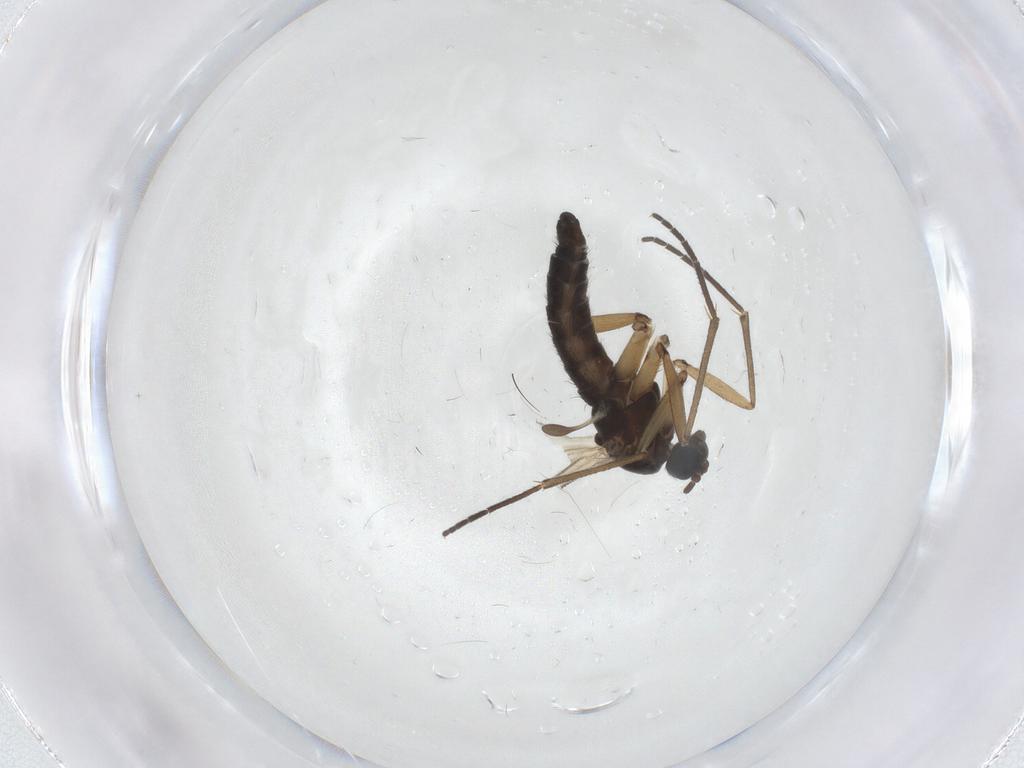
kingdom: Animalia
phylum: Arthropoda
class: Insecta
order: Diptera
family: Sciaridae
